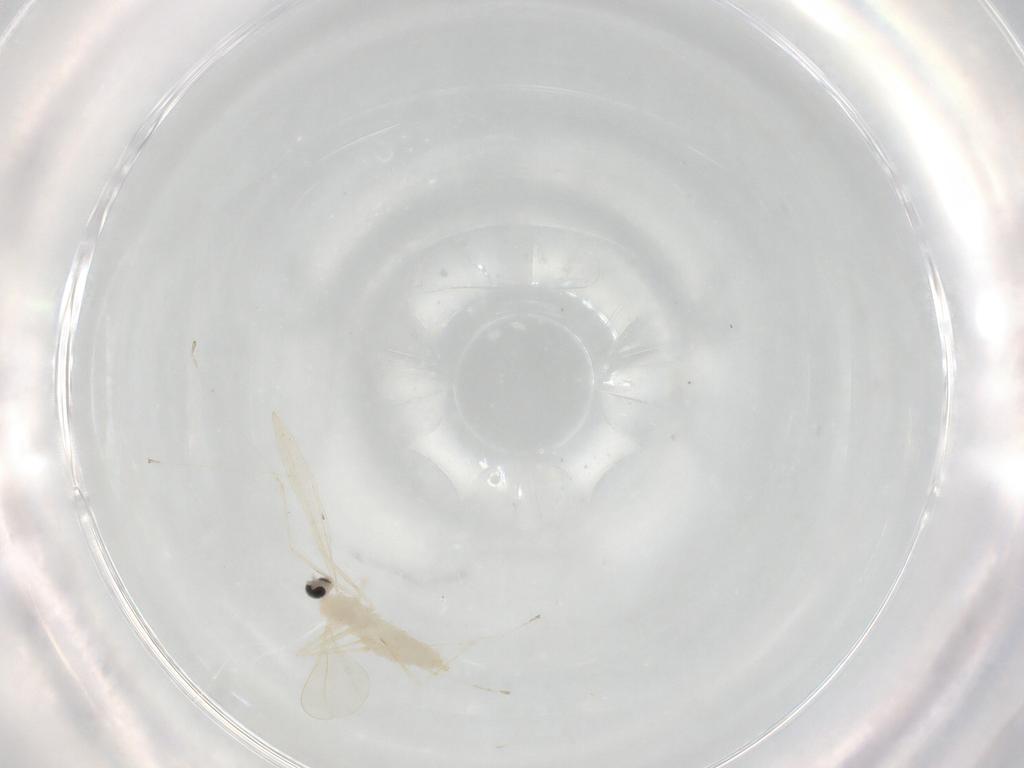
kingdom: Animalia
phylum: Arthropoda
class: Insecta
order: Diptera
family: Cecidomyiidae
